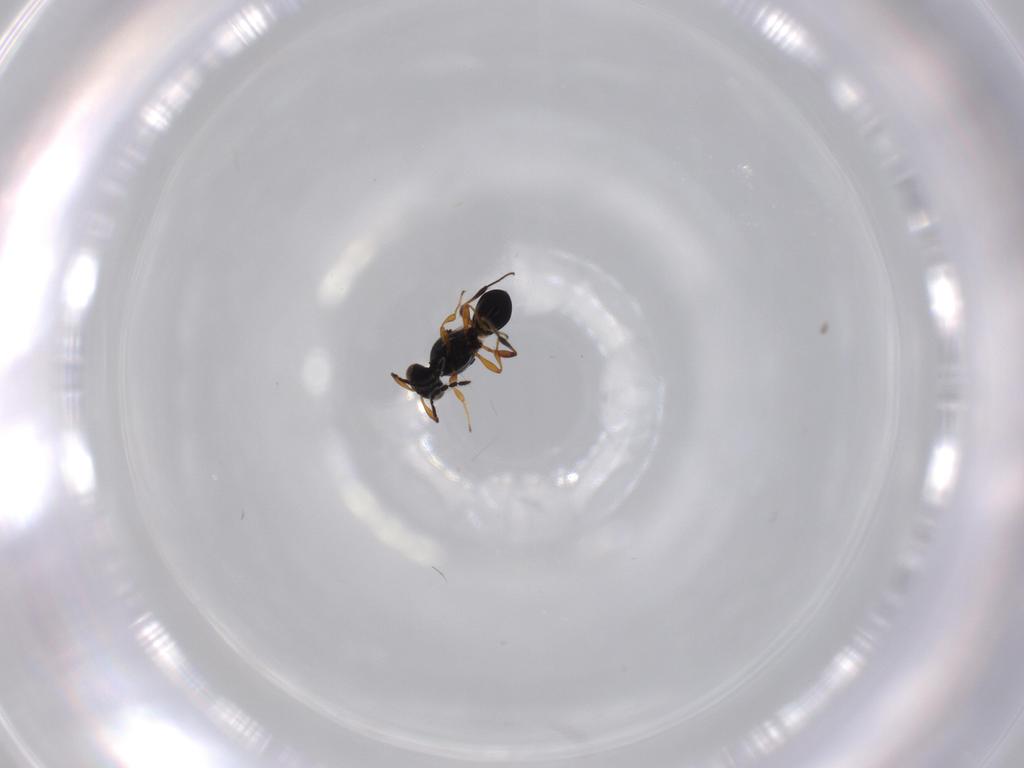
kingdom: Animalia
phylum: Arthropoda
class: Insecta
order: Hymenoptera
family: Platygastridae
